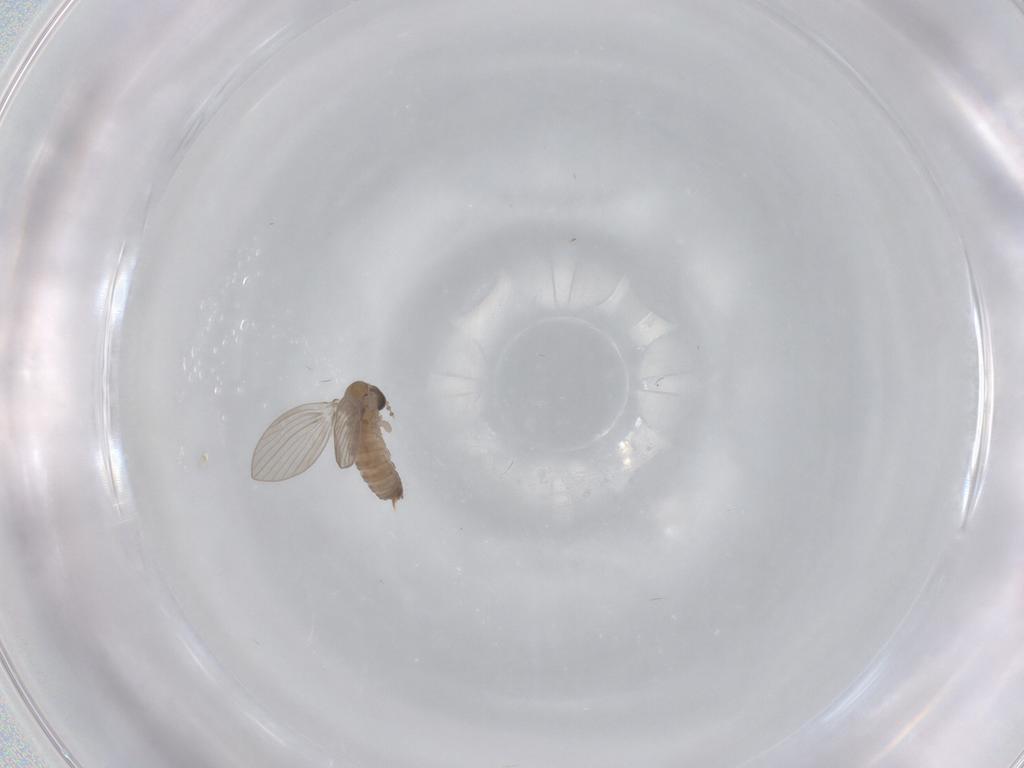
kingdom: Animalia
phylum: Arthropoda
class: Insecta
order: Diptera
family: Psychodidae
